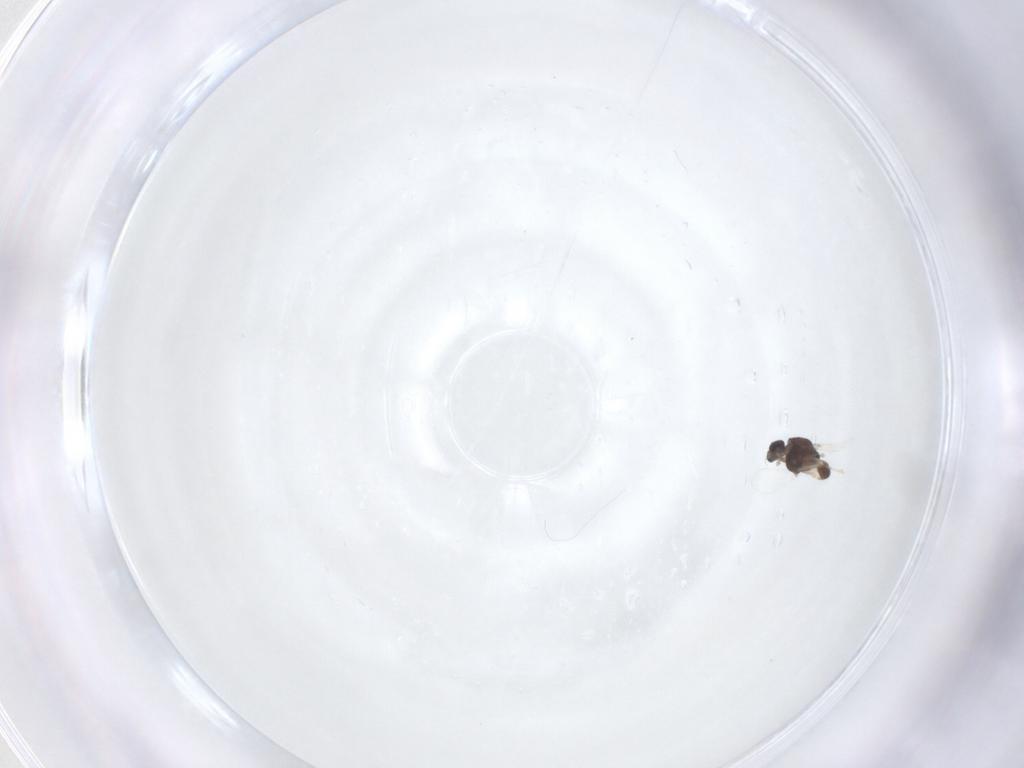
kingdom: Animalia
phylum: Arthropoda
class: Insecta
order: Diptera
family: Chironomidae
